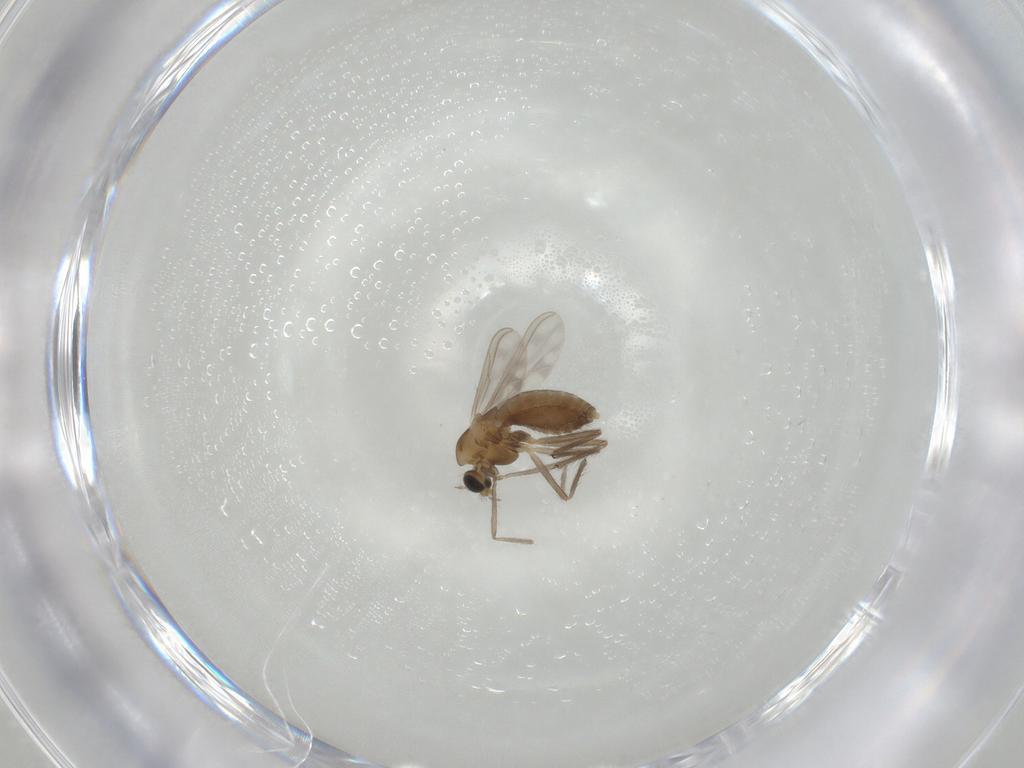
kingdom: Animalia
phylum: Arthropoda
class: Insecta
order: Diptera
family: Chironomidae
